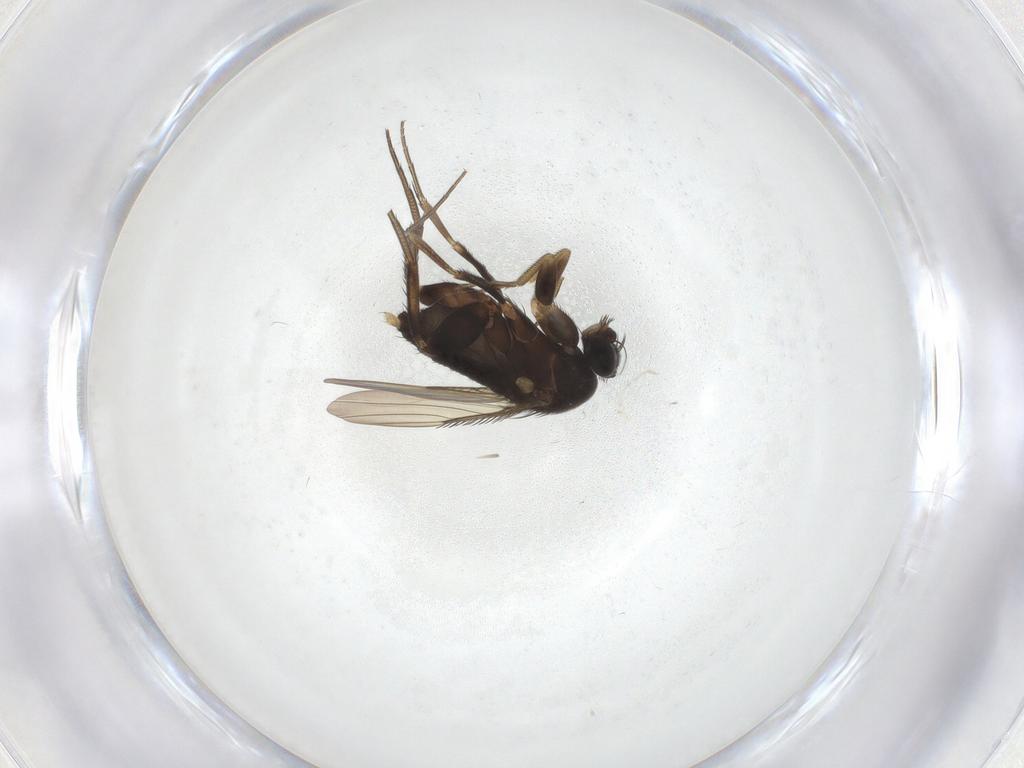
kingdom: Animalia
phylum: Arthropoda
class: Insecta
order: Diptera
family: Phoridae
